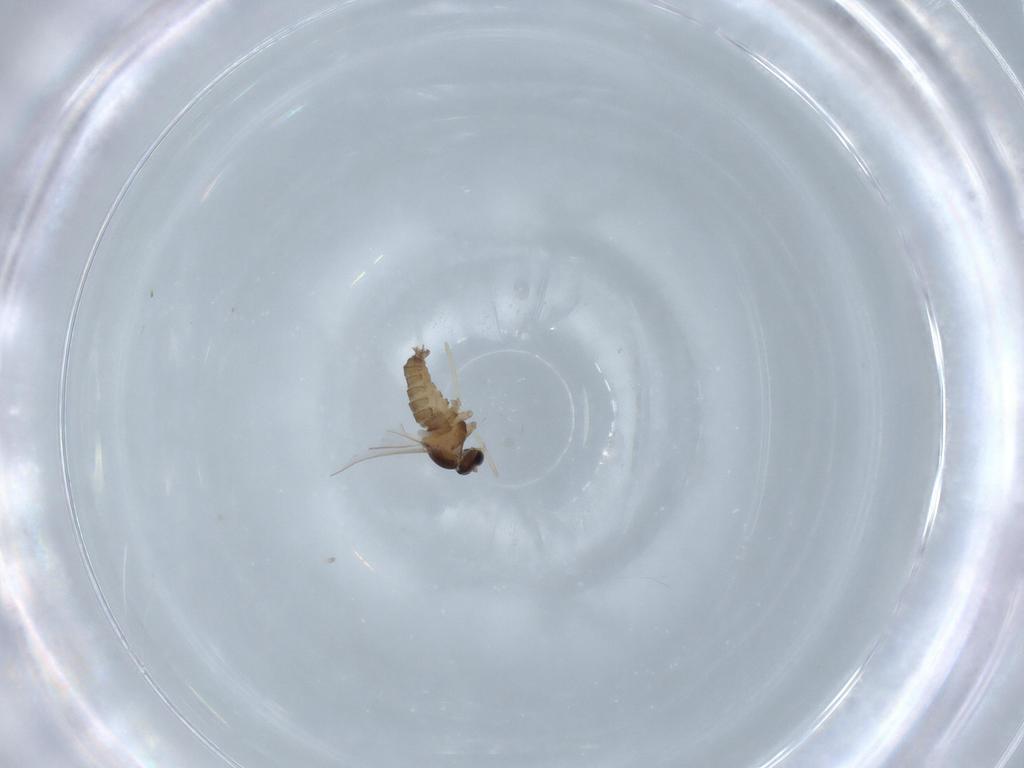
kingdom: Animalia
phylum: Arthropoda
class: Insecta
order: Diptera
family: Cecidomyiidae
